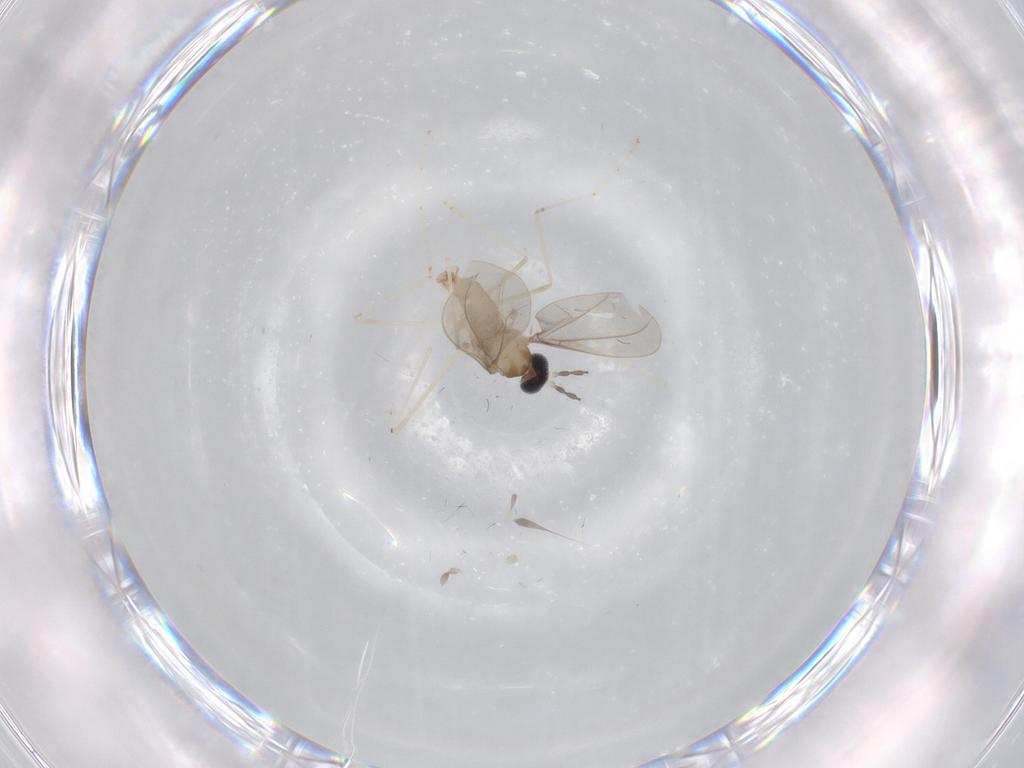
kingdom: Animalia
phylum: Arthropoda
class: Insecta
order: Diptera
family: Cecidomyiidae
